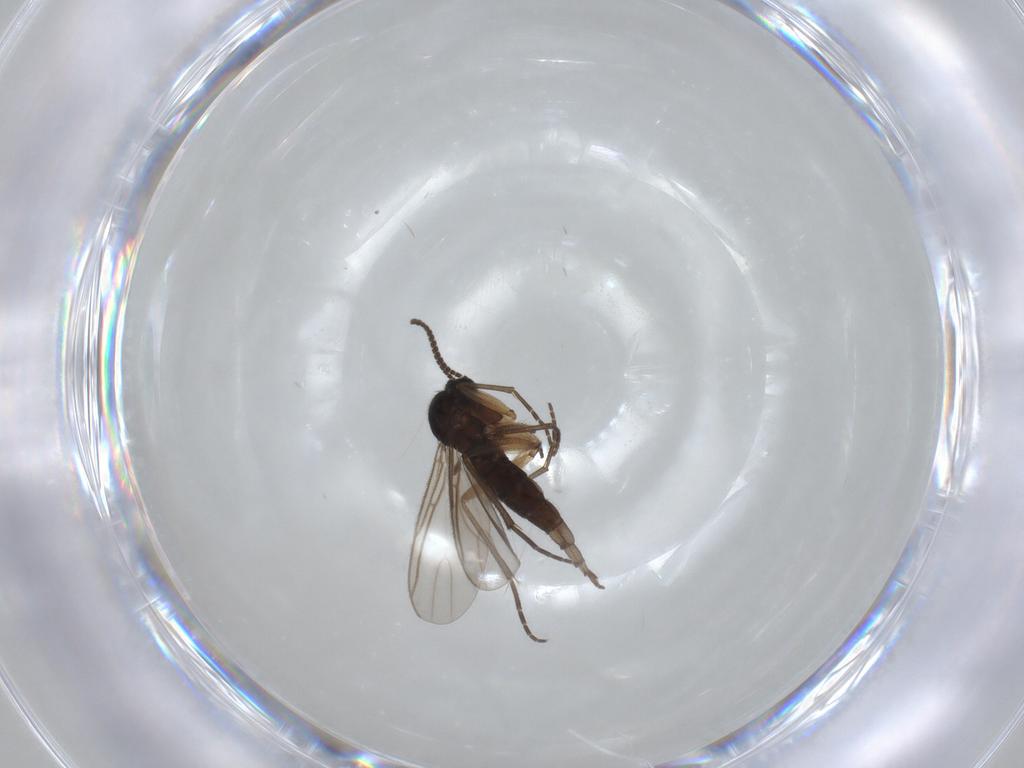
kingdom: Animalia
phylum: Arthropoda
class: Insecta
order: Diptera
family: Sciaridae
